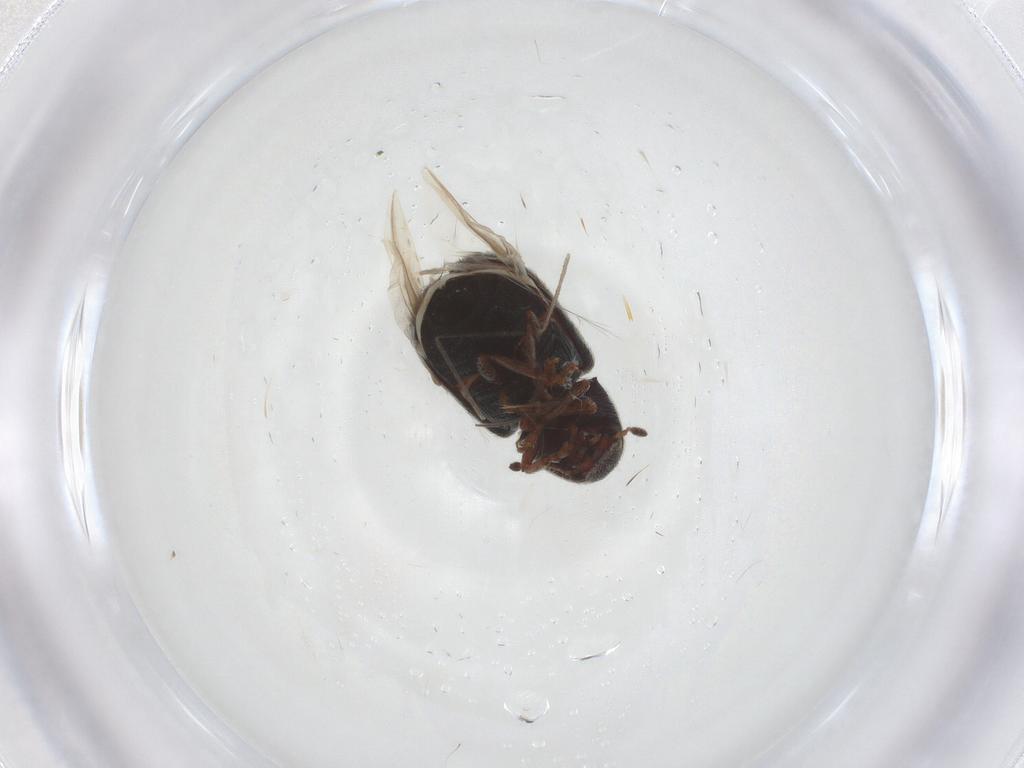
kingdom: Animalia
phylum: Arthropoda
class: Insecta
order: Coleoptera
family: Anthribidae
